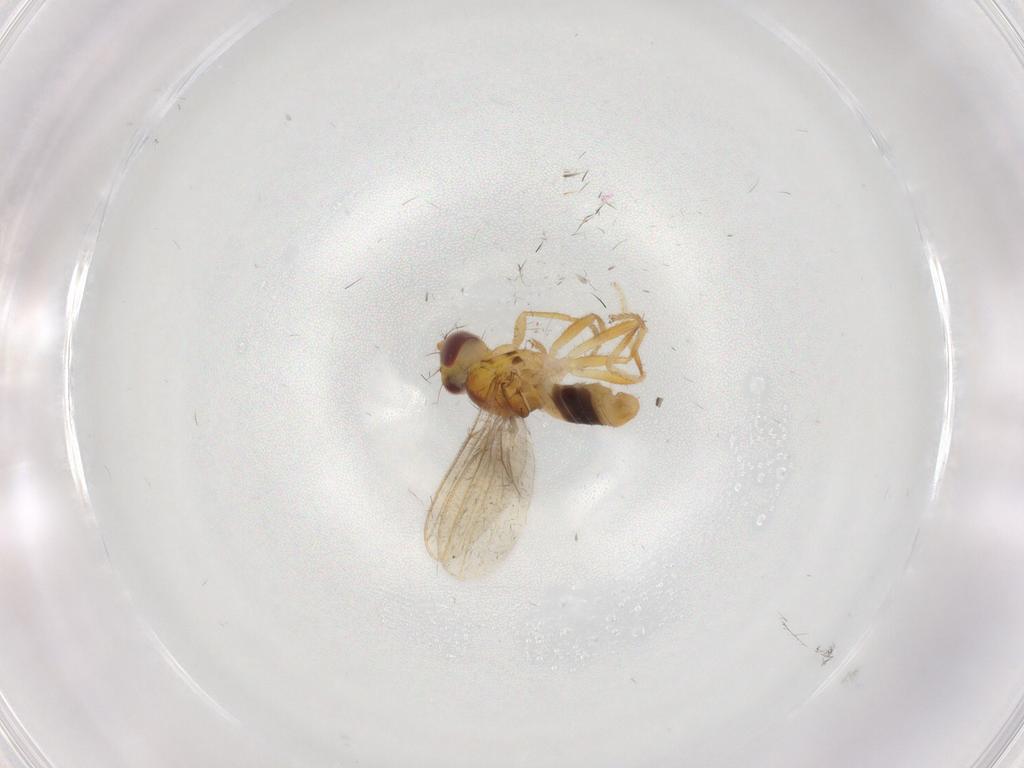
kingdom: Animalia
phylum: Arthropoda
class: Insecta
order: Diptera
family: Periscelididae
